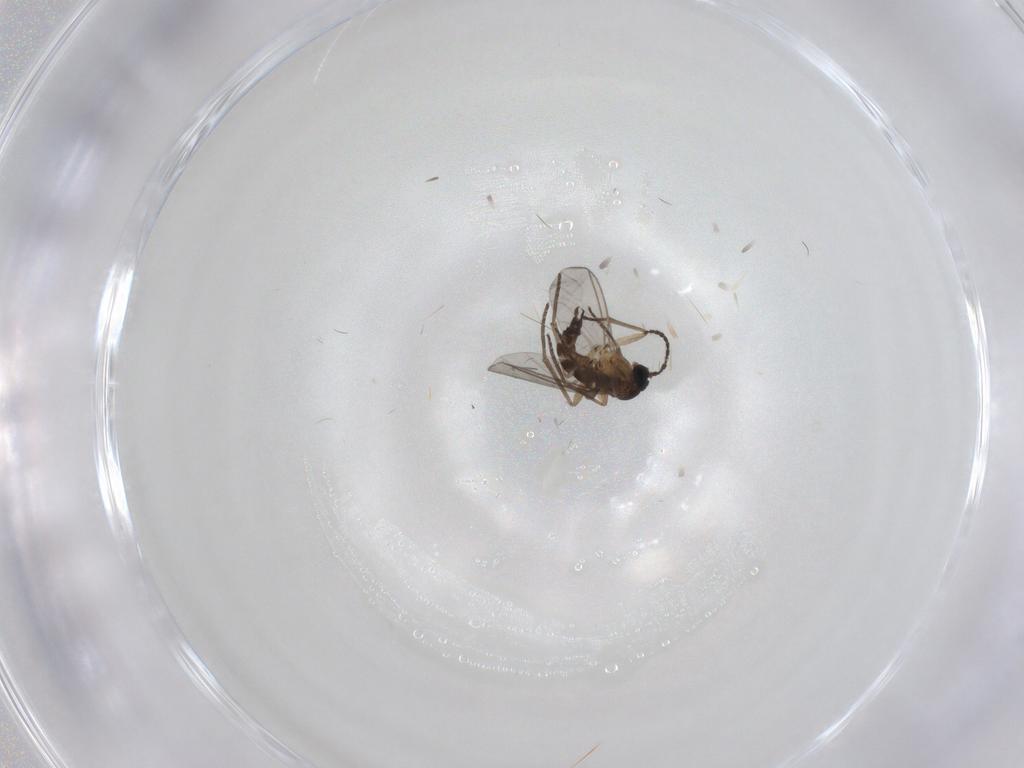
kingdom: Animalia
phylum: Arthropoda
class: Insecta
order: Diptera
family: Sciaridae
